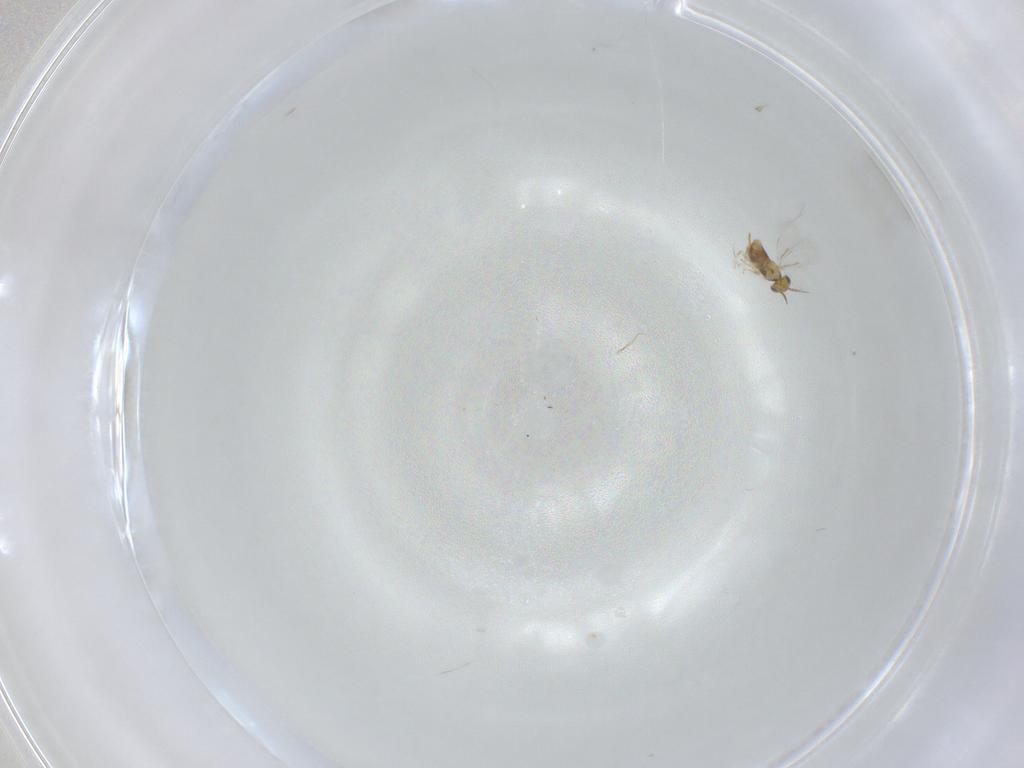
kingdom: Animalia
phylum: Arthropoda
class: Insecta
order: Hymenoptera
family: Aphelinidae
